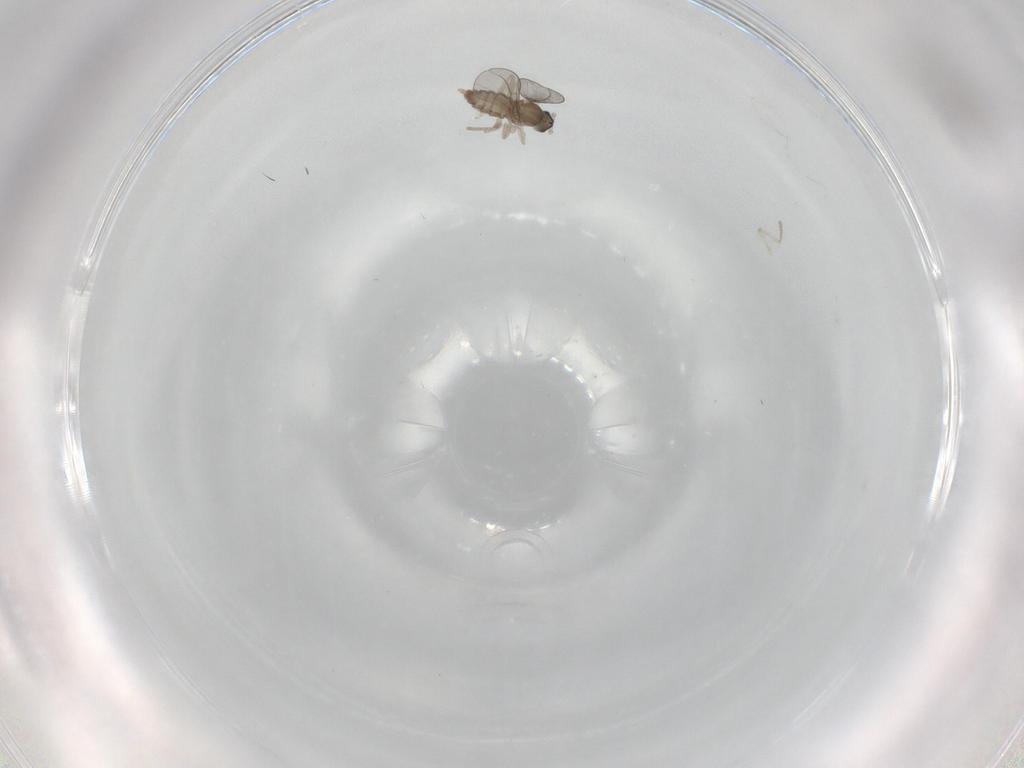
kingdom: Animalia
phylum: Arthropoda
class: Insecta
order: Diptera
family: Cecidomyiidae
